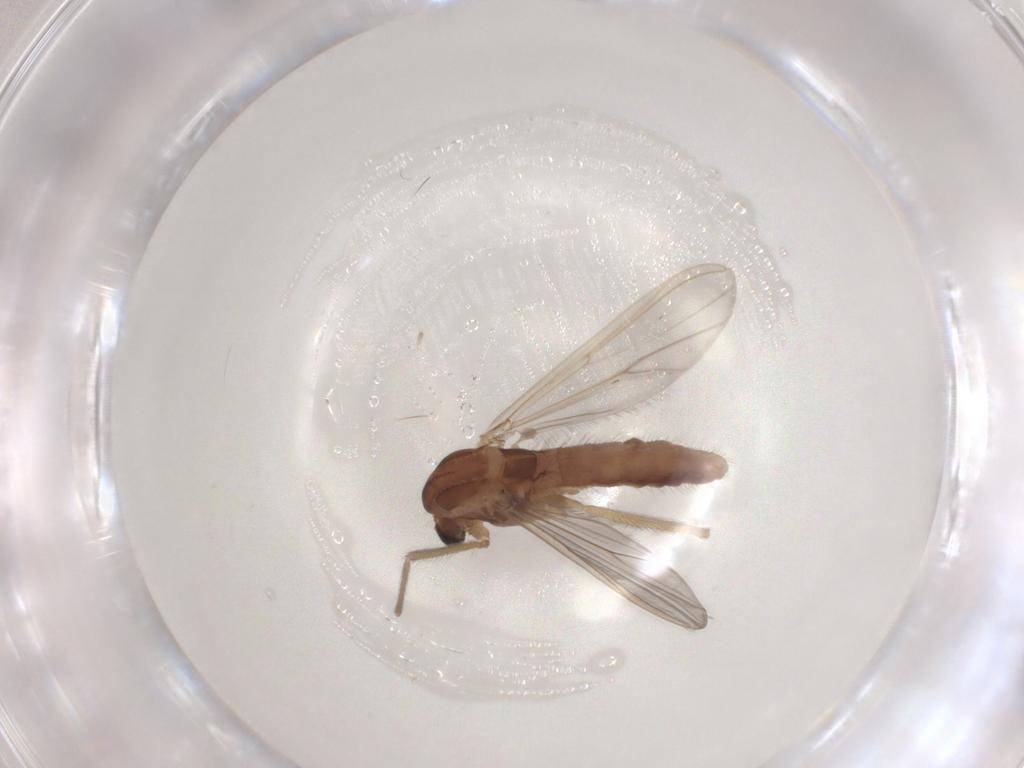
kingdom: Animalia
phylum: Arthropoda
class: Insecta
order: Diptera
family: Chironomidae
